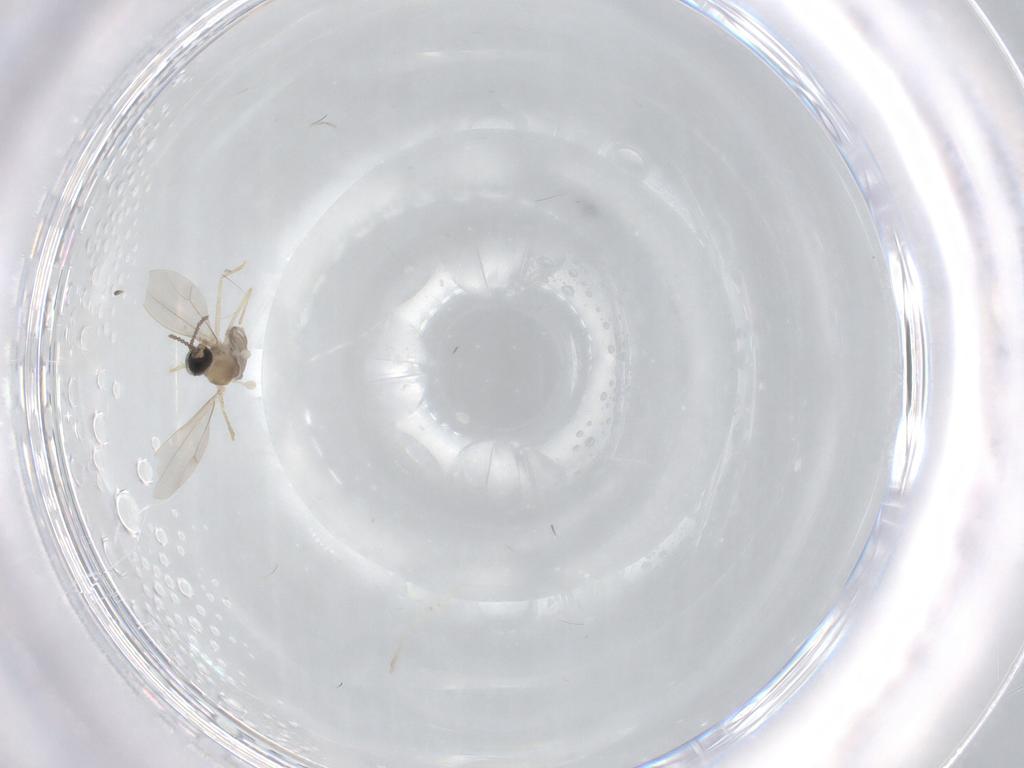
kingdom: Animalia
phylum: Arthropoda
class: Insecta
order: Diptera
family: Cecidomyiidae
